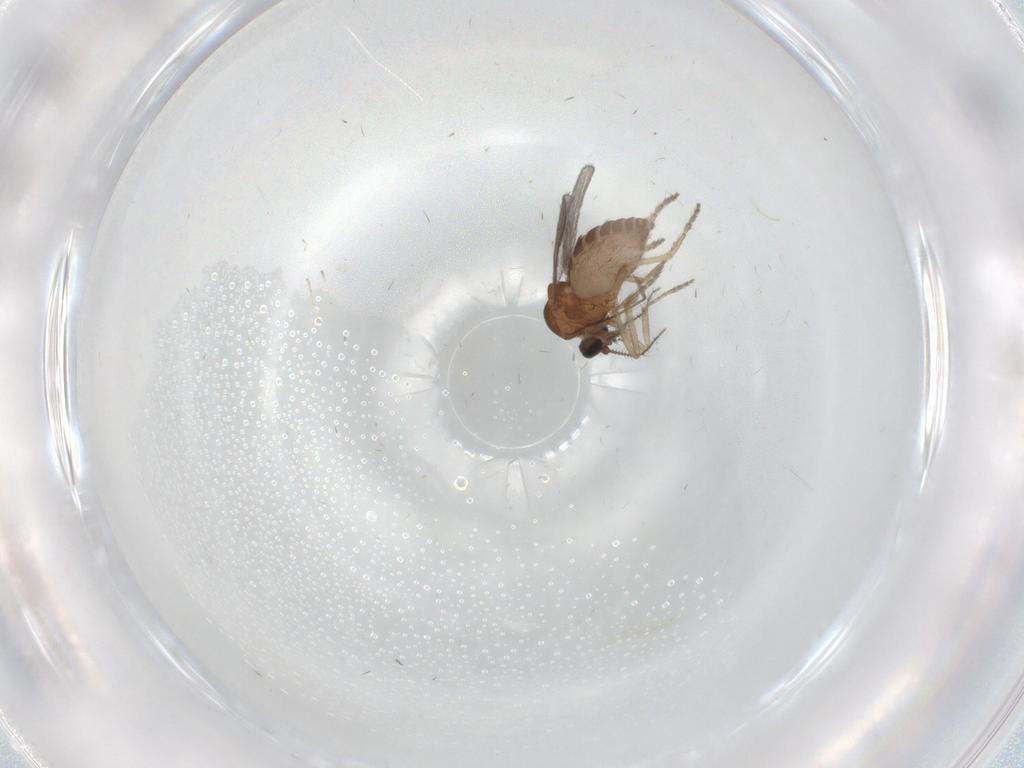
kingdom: Animalia
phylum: Arthropoda
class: Insecta
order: Diptera
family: Ceratopogonidae
